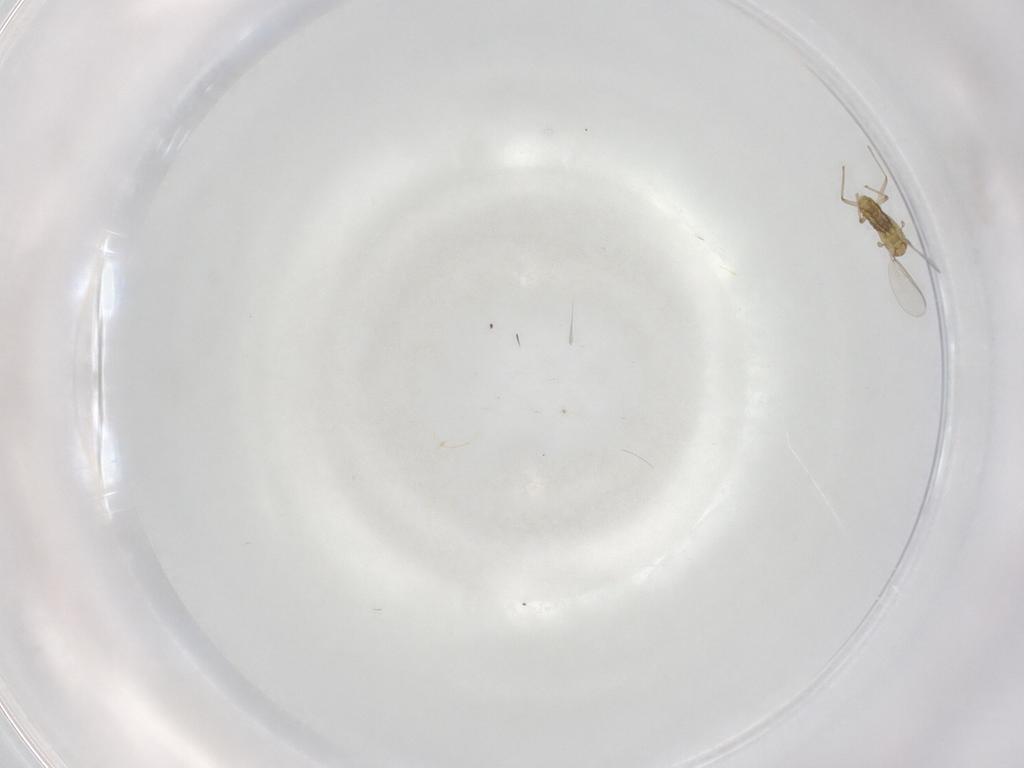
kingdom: Animalia
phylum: Arthropoda
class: Insecta
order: Diptera
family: Chironomidae
